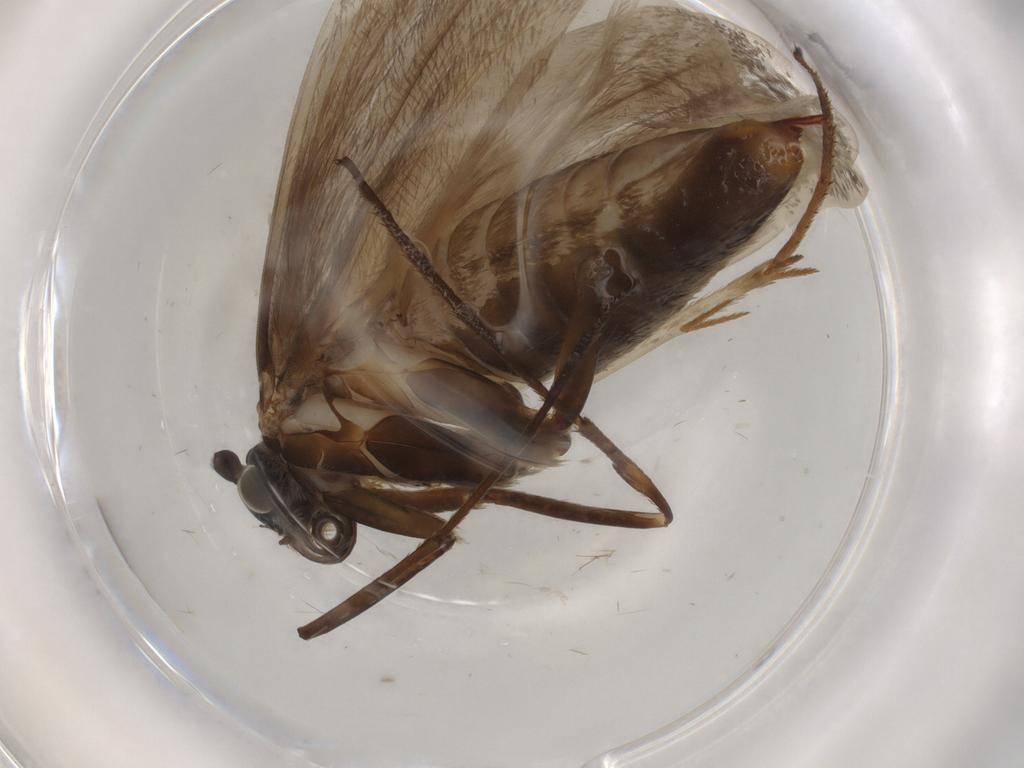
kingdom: Animalia
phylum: Arthropoda
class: Insecta
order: Lepidoptera
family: Adelidae
